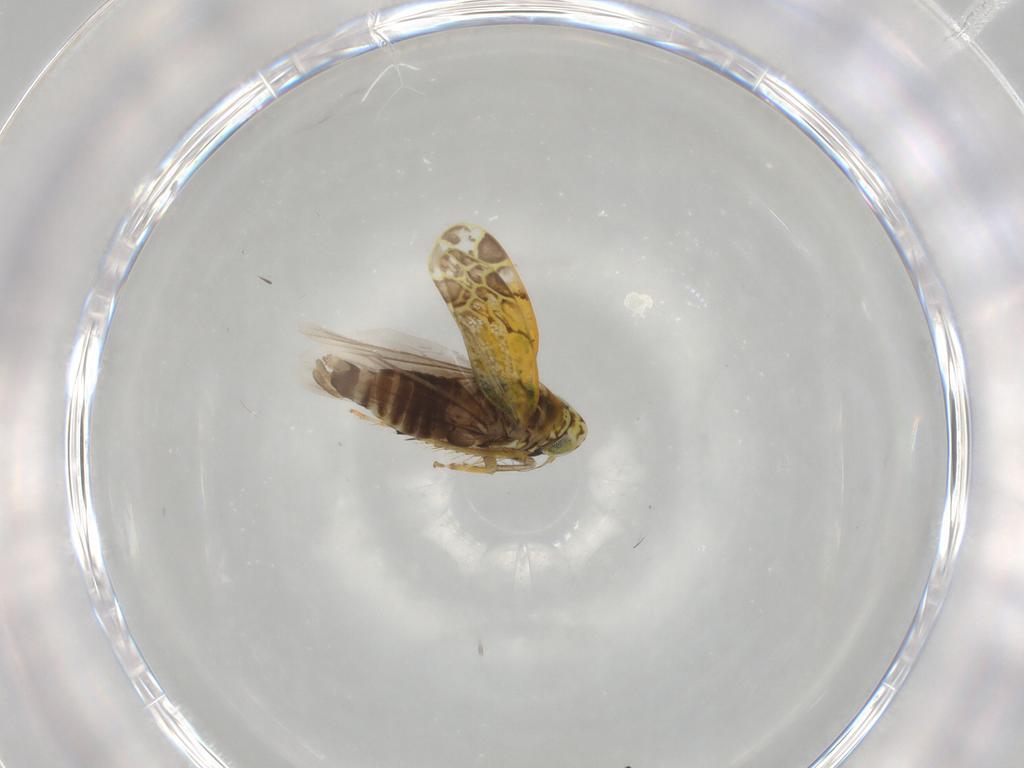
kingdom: Animalia
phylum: Arthropoda
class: Insecta
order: Hemiptera
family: Cicadellidae
